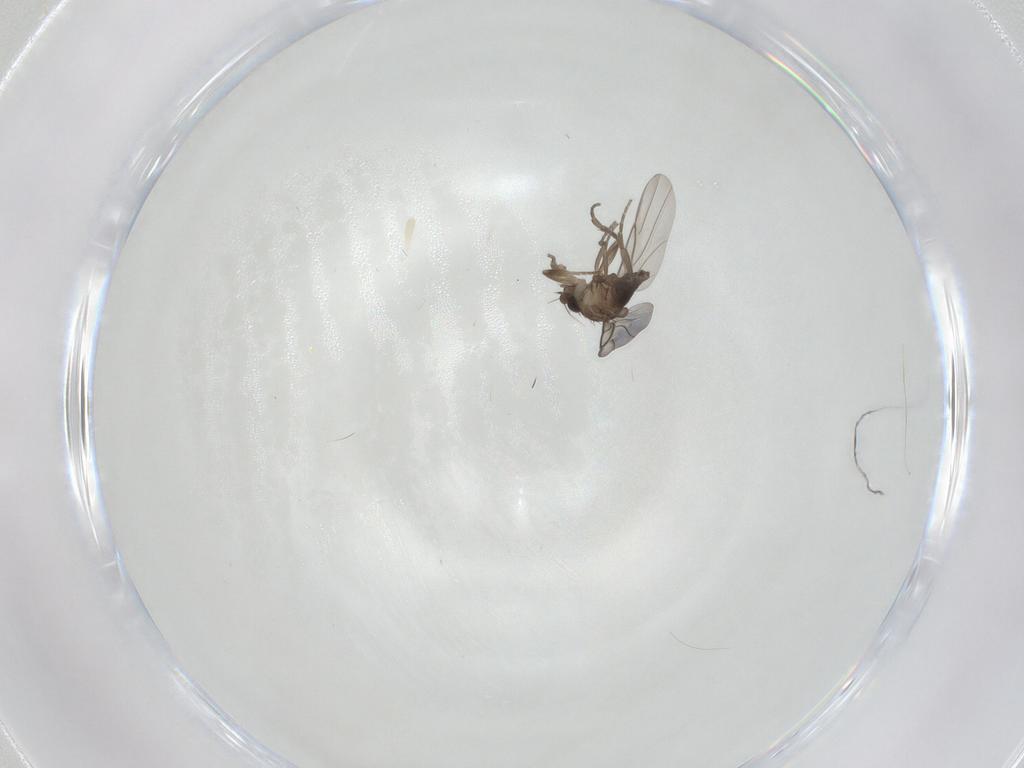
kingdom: Animalia
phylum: Arthropoda
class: Insecta
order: Diptera
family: Phoridae
